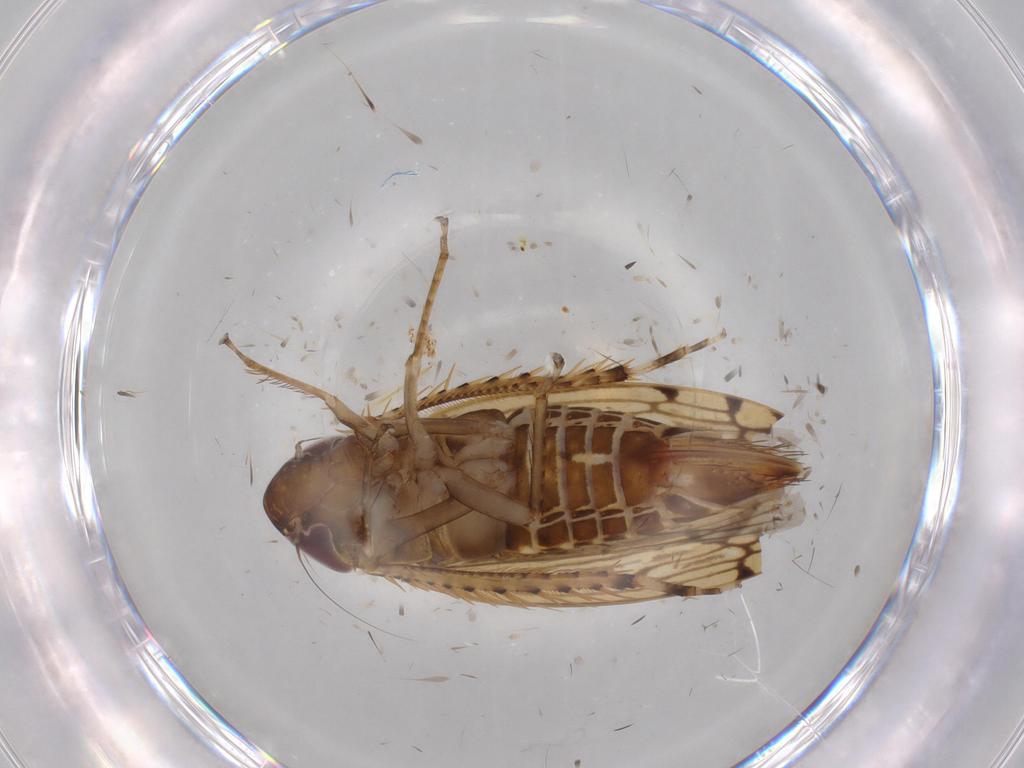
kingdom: Animalia
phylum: Arthropoda
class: Insecta
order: Hemiptera
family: Cicadellidae
